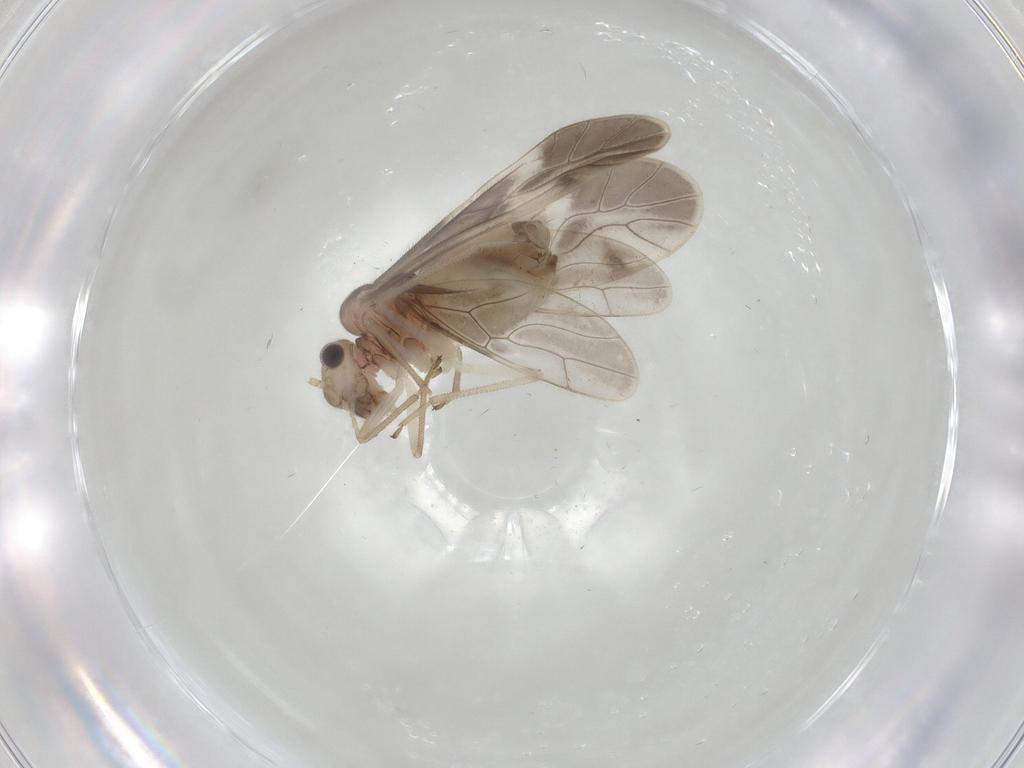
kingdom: Animalia
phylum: Arthropoda
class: Insecta
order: Psocodea
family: Caeciliusidae
